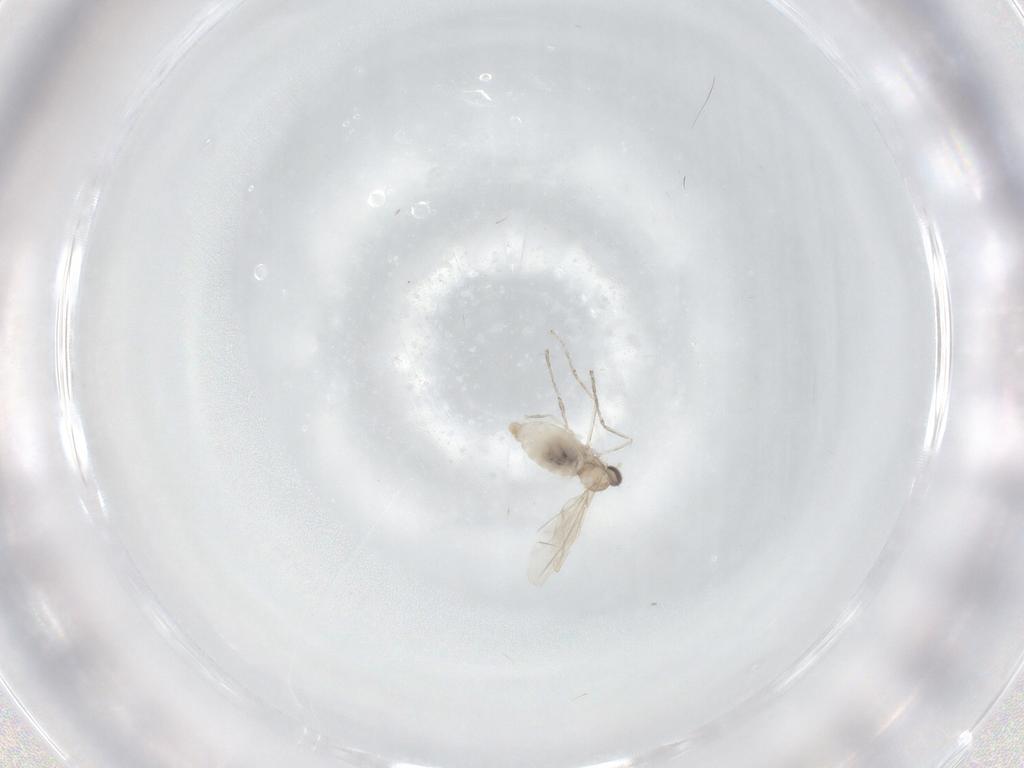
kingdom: Animalia
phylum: Arthropoda
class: Insecta
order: Diptera
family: Cecidomyiidae
